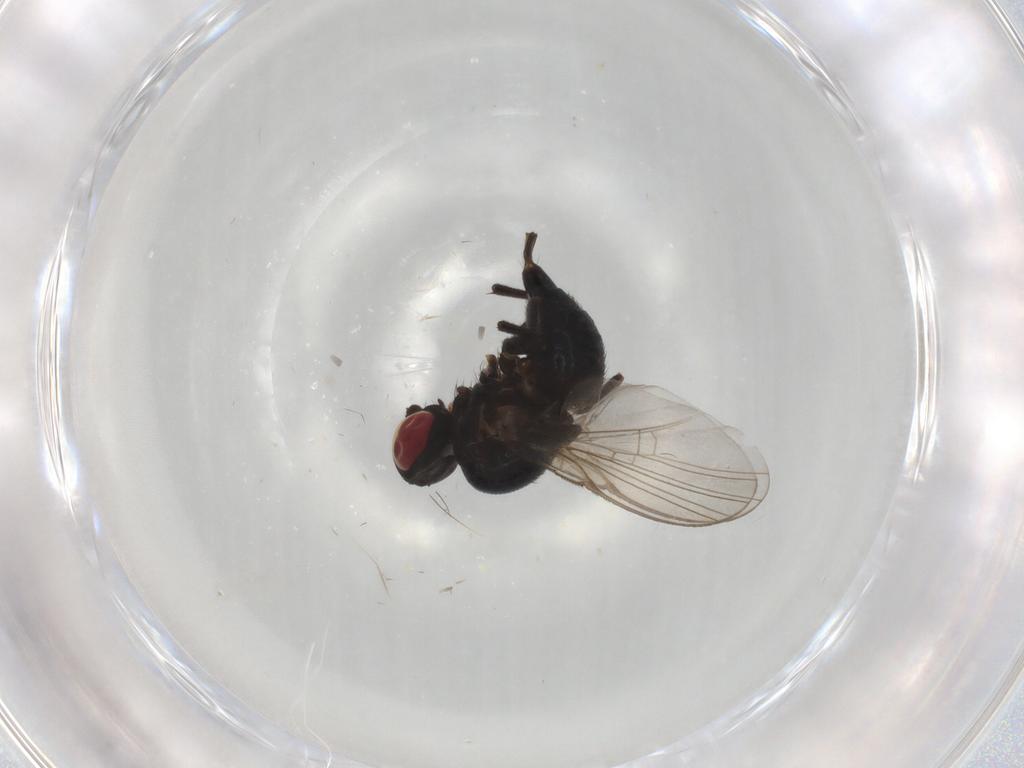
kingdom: Animalia
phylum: Arthropoda
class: Insecta
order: Diptera
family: Agromyzidae
